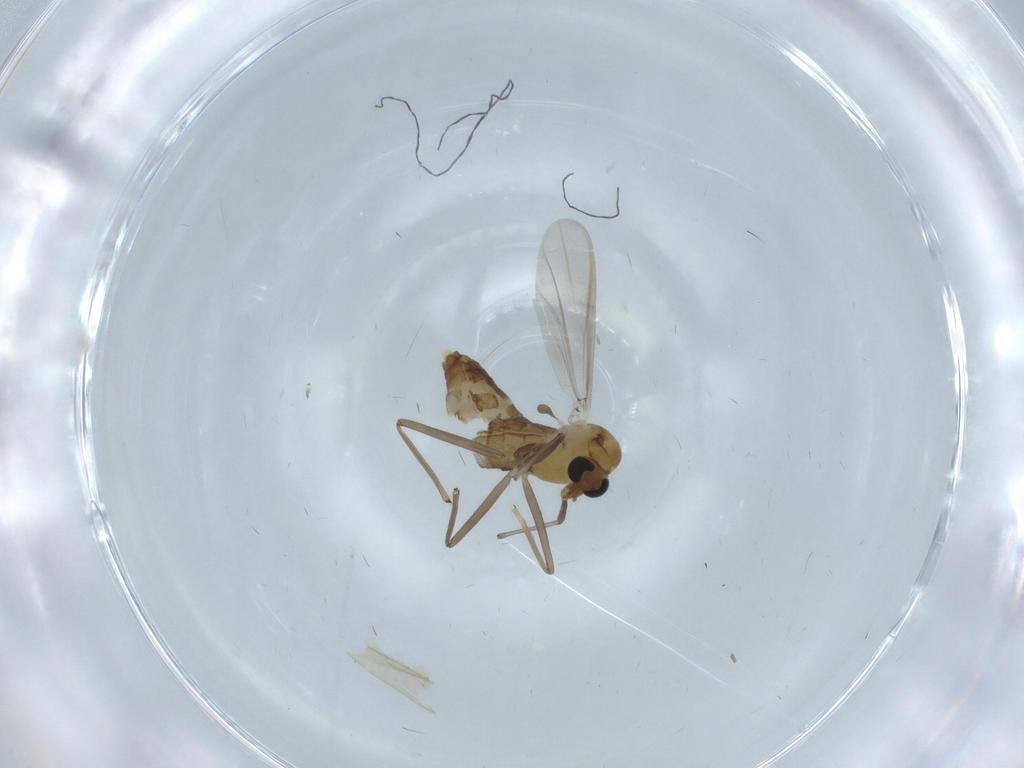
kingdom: Animalia
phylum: Arthropoda
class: Insecta
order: Diptera
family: Chironomidae
